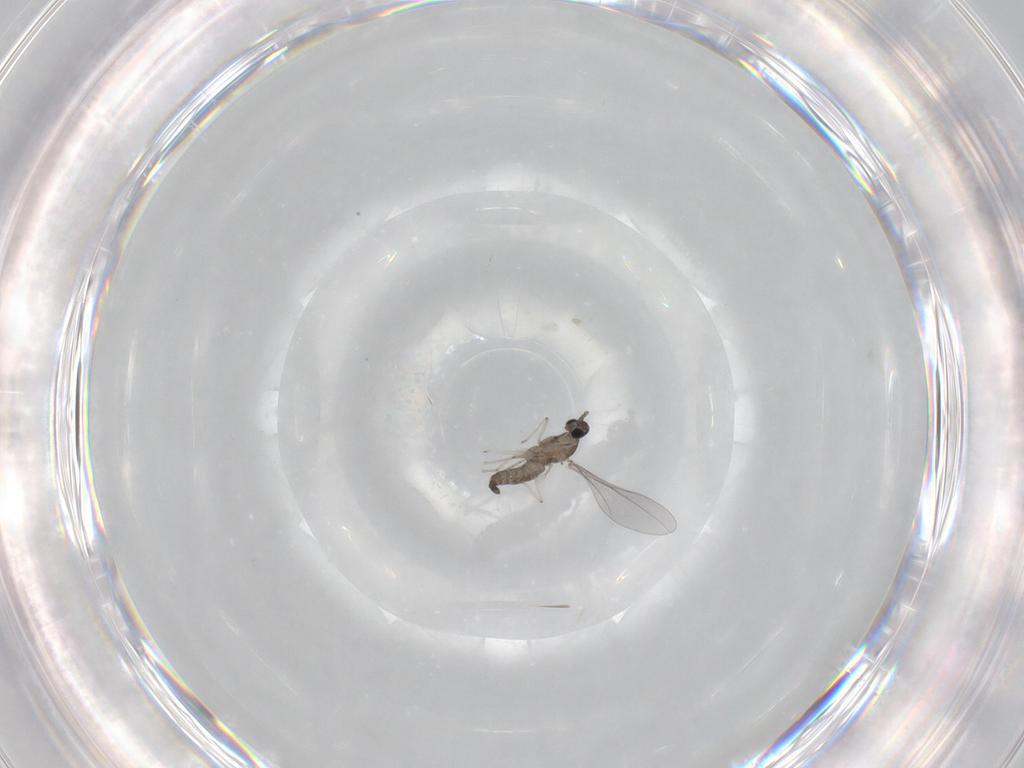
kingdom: Animalia
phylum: Arthropoda
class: Insecta
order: Diptera
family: Cecidomyiidae
